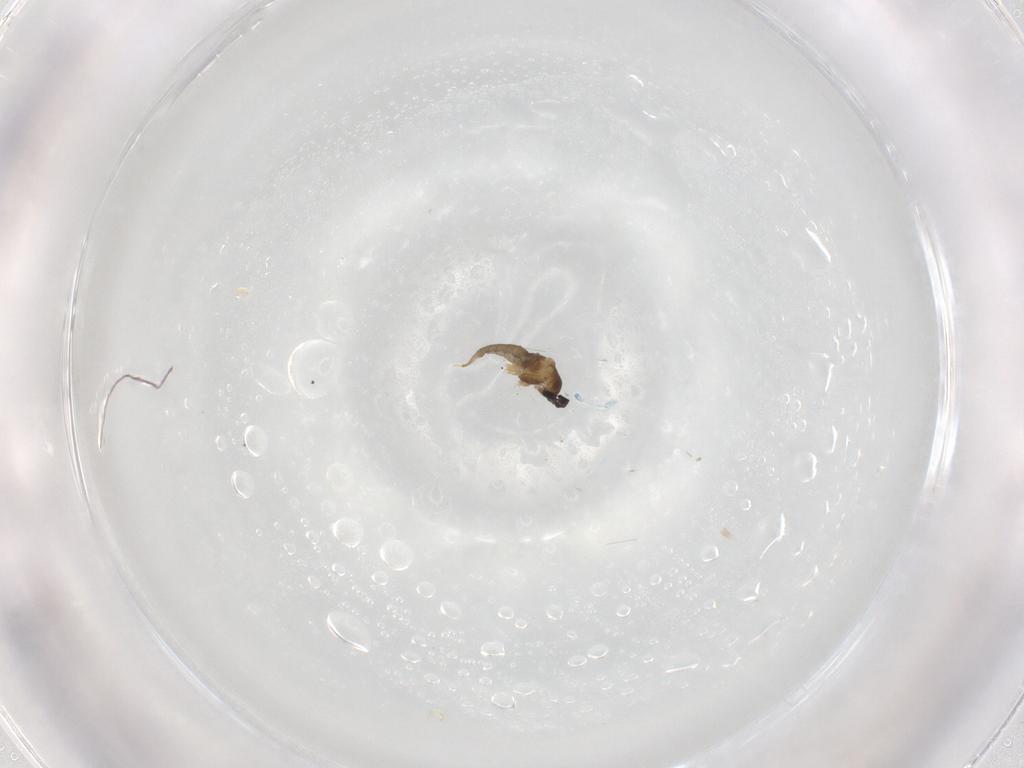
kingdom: Animalia
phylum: Arthropoda
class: Insecta
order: Diptera
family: Cecidomyiidae
